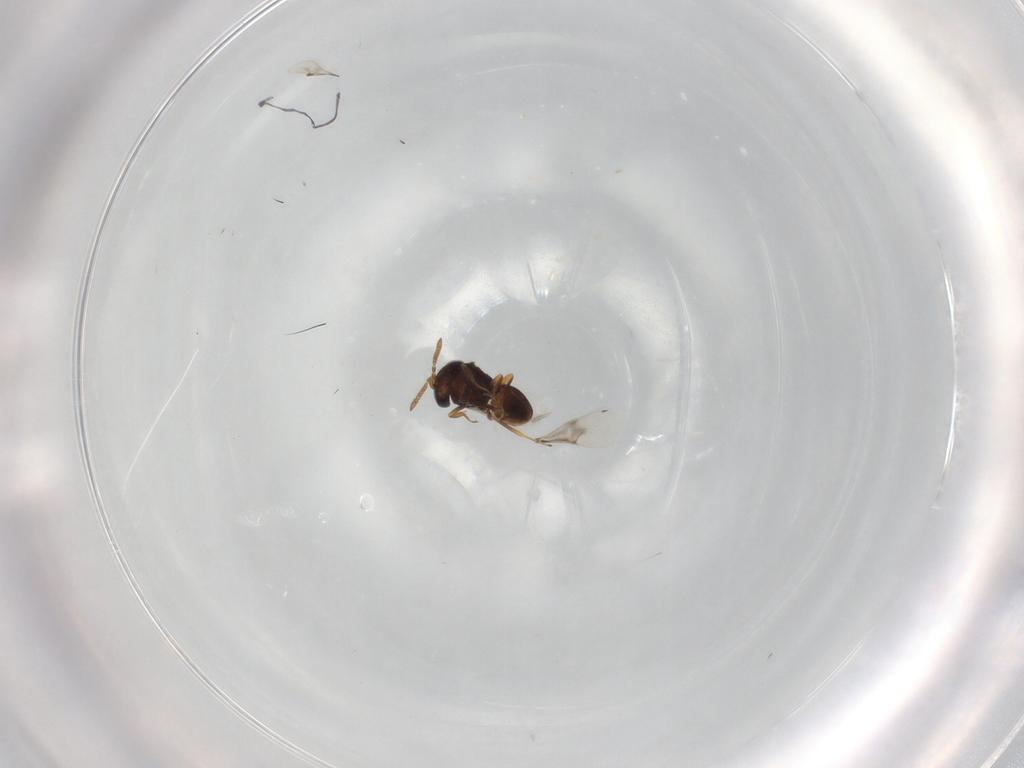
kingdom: Animalia
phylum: Arthropoda
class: Insecta
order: Hymenoptera
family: Scelionidae
